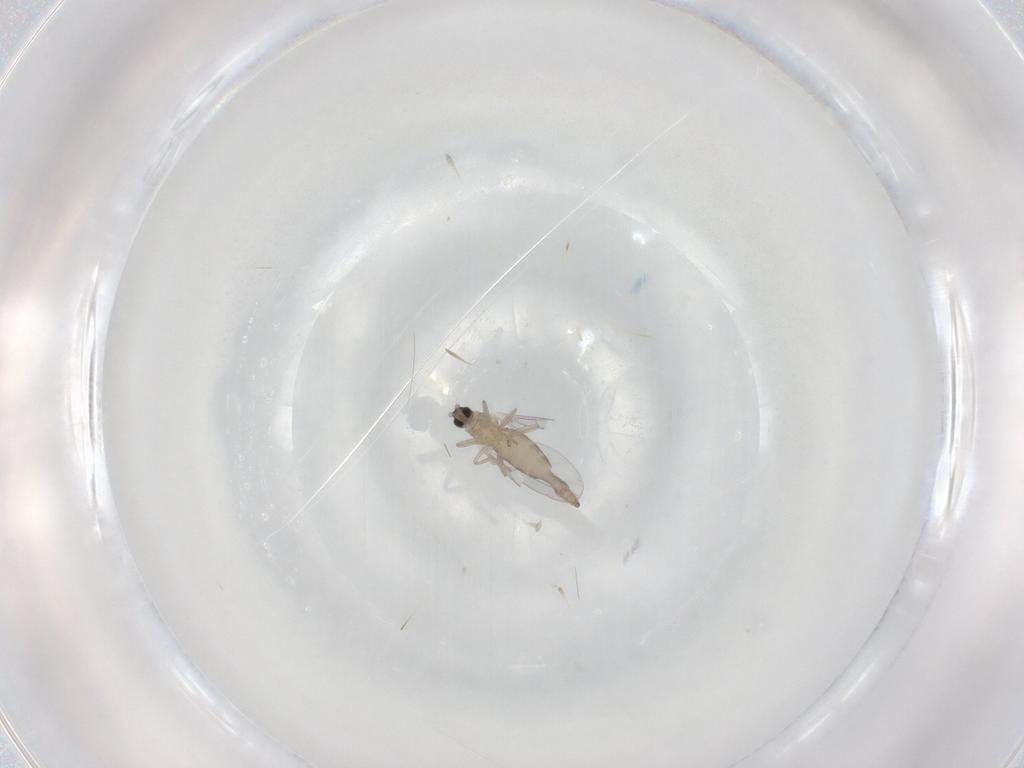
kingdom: Animalia
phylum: Arthropoda
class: Insecta
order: Diptera
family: Cecidomyiidae
